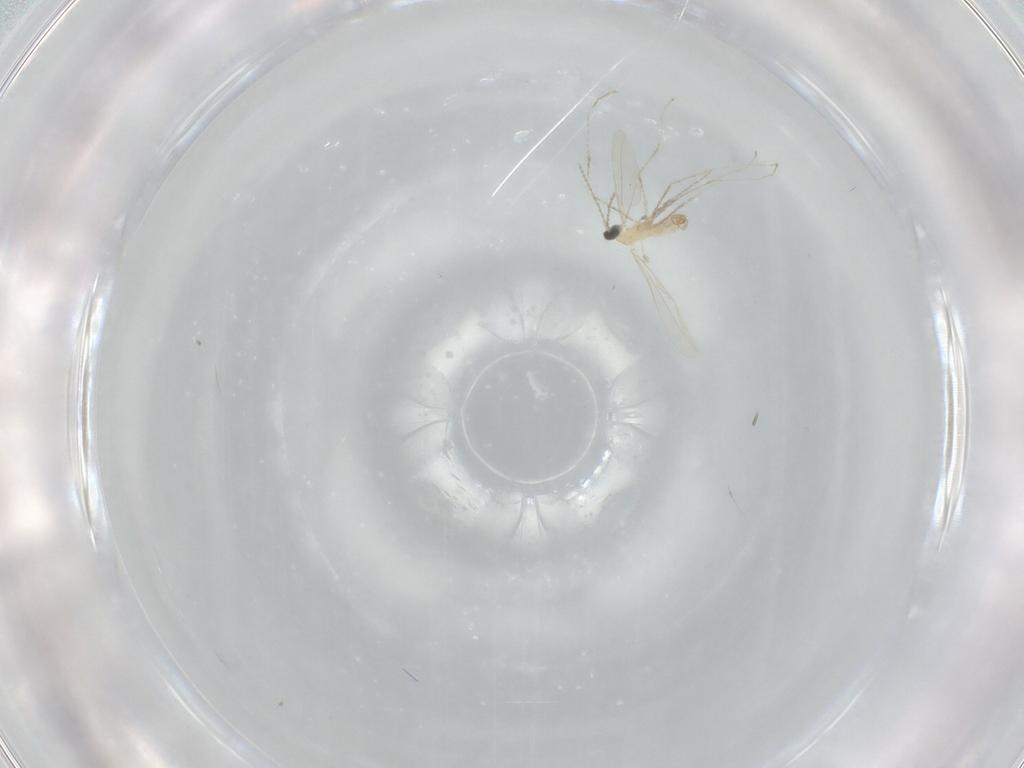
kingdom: Animalia
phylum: Arthropoda
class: Insecta
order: Diptera
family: Cecidomyiidae
